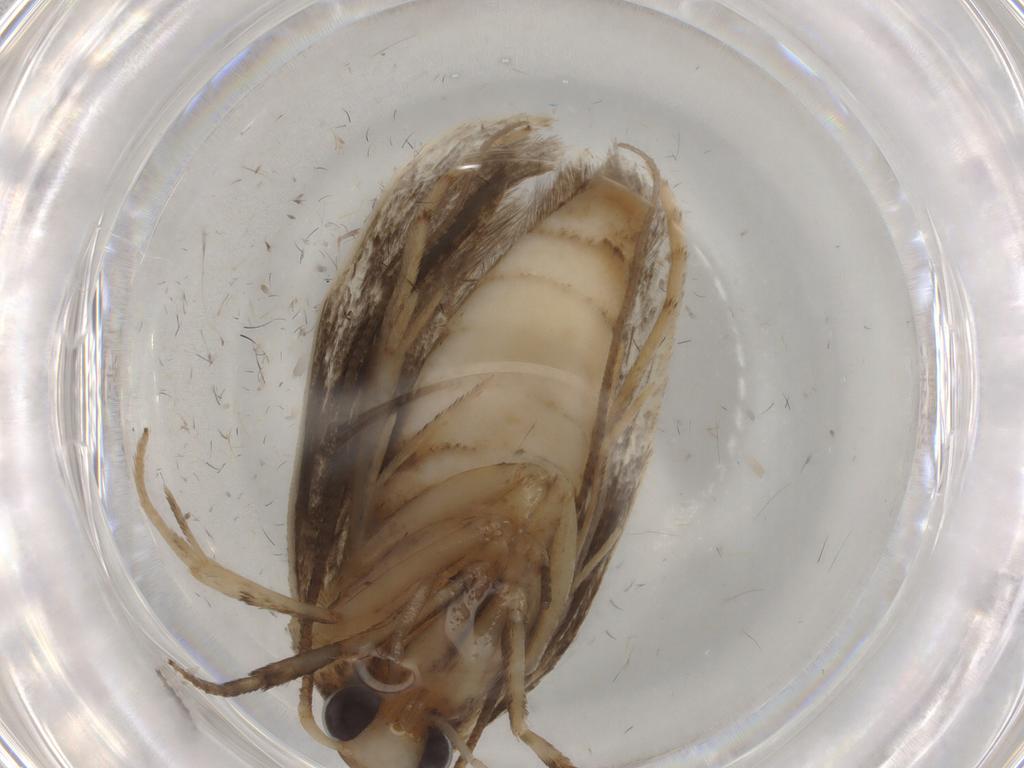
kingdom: Animalia
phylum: Arthropoda
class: Insecta
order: Lepidoptera
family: Yponomeutidae
